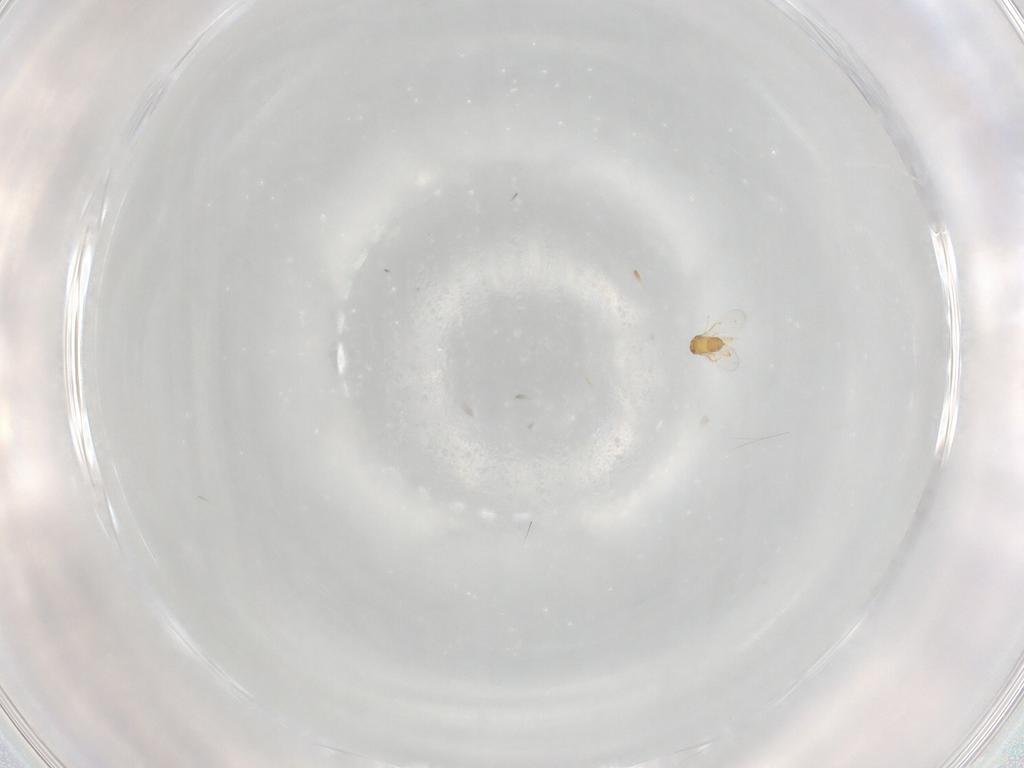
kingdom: Animalia
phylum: Arthropoda
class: Insecta
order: Hymenoptera
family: Trichogrammatidae
